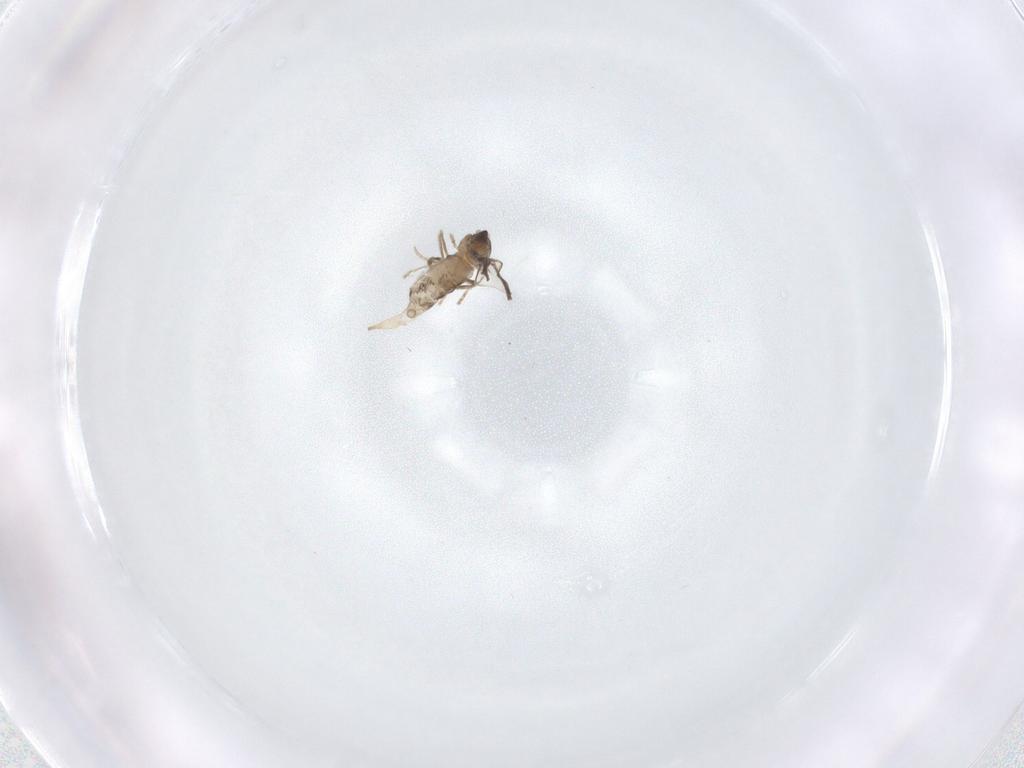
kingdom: Animalia
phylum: Arthropoda
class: Insecta
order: Diptera
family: Cecidomyiidae
